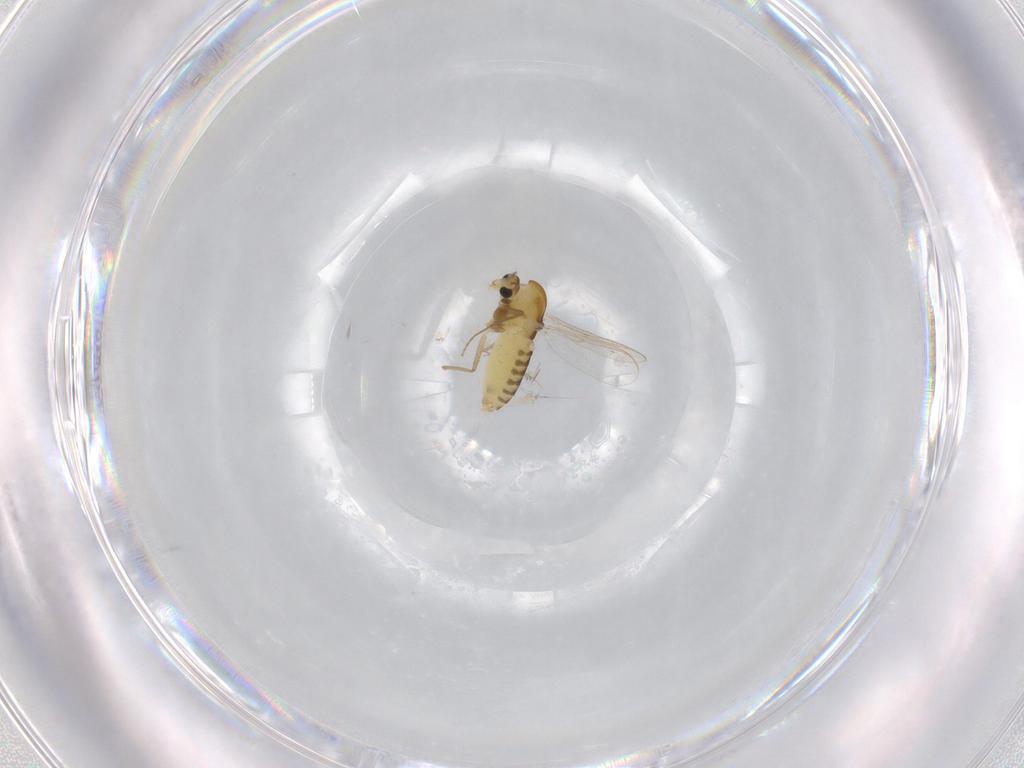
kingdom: Animalia
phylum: Arthropoda
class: Insecta
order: Diptera
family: Chironomidae
